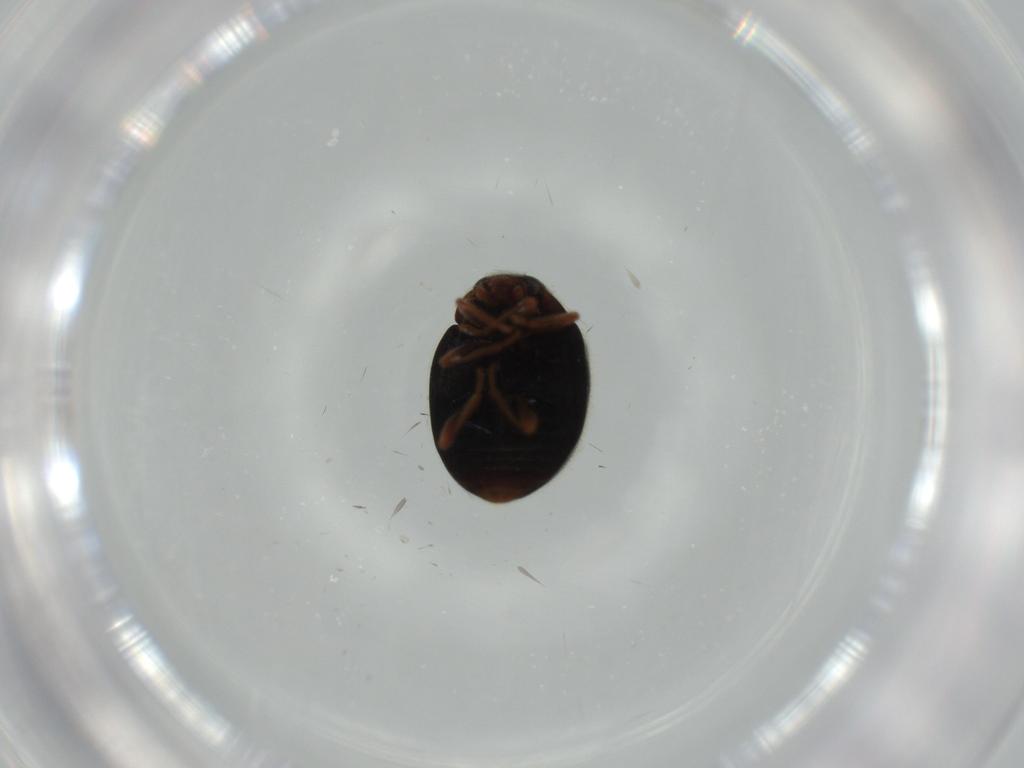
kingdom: Animalia
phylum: Arthropoda
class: Insecta
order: Coleoptera
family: Coccinellidae
